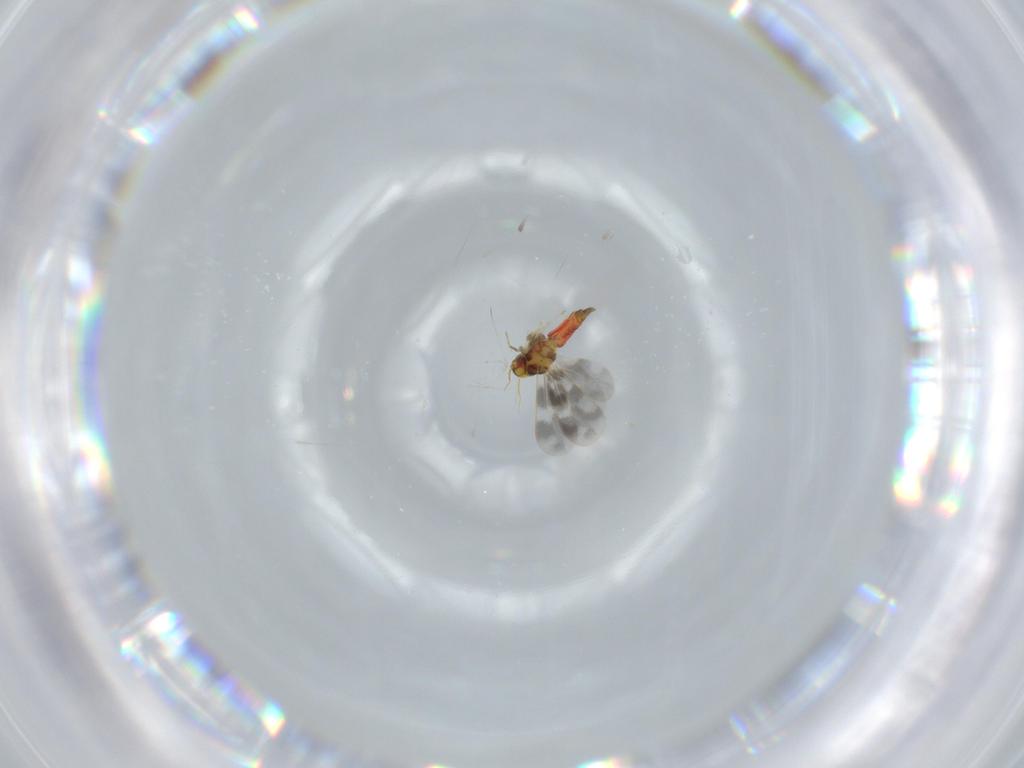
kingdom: Animalia
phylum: Arthropoda
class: Insecta
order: Hemiptera
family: Aleyrodidae
